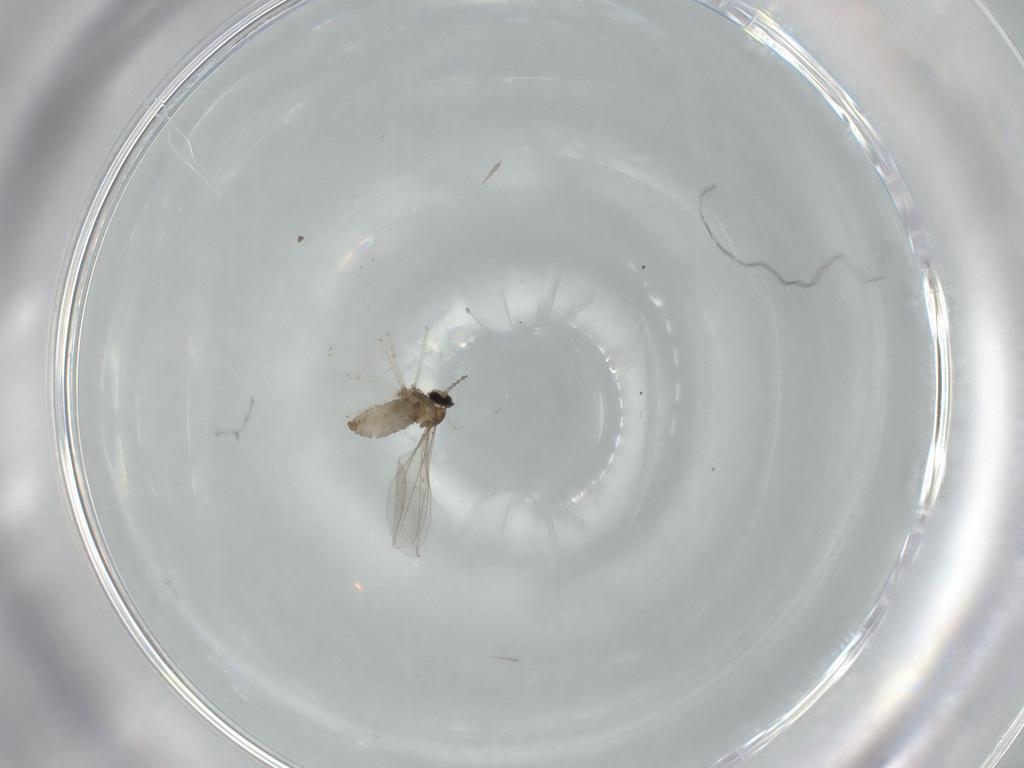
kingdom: Animalia
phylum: Arthropoda
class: Insecta
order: Diptera
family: Cecidomyiidae
